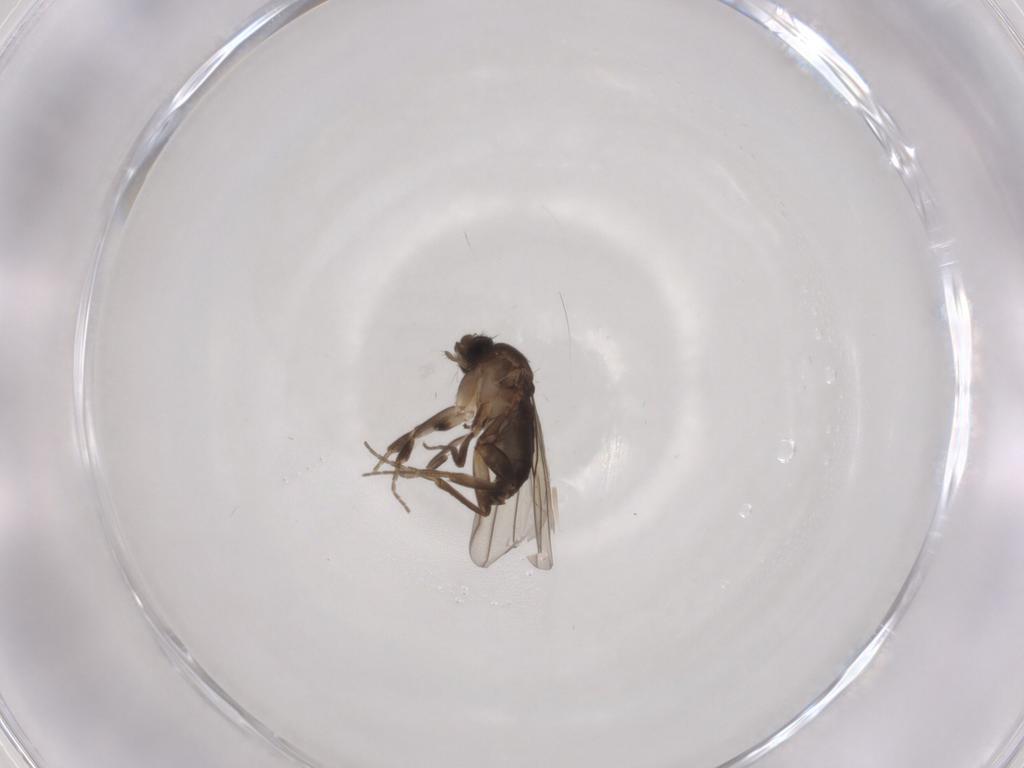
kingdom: Animalia
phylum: Arthropoda
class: Insecta
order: Diptera
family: Phoridae
